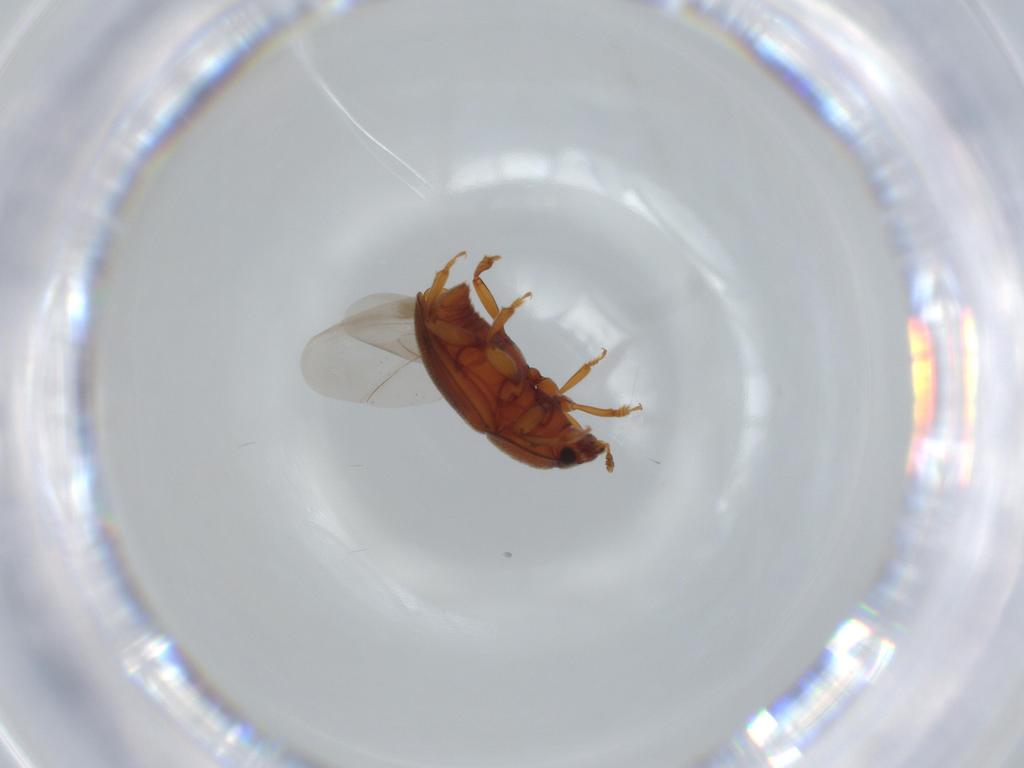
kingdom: Animalia
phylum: Arthropoda
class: Insecta
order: Coleoptera
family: Nitidulidae
